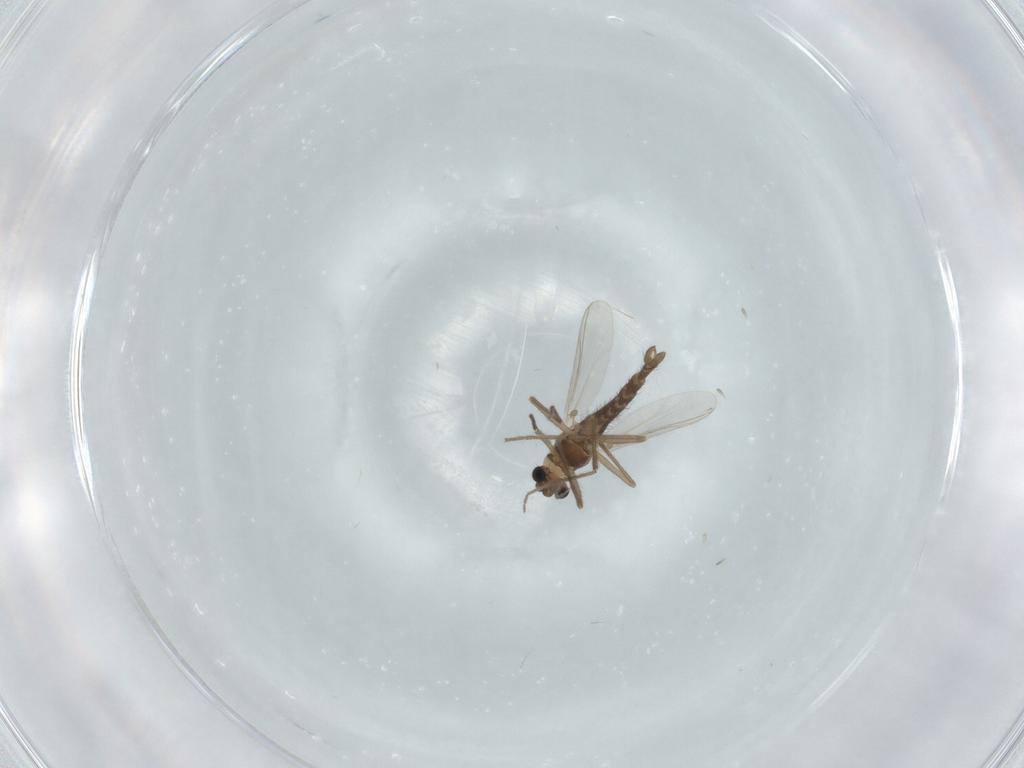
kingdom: Animalia
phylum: Arthropoda
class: Insecta
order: Diptera
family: Chironomidae
